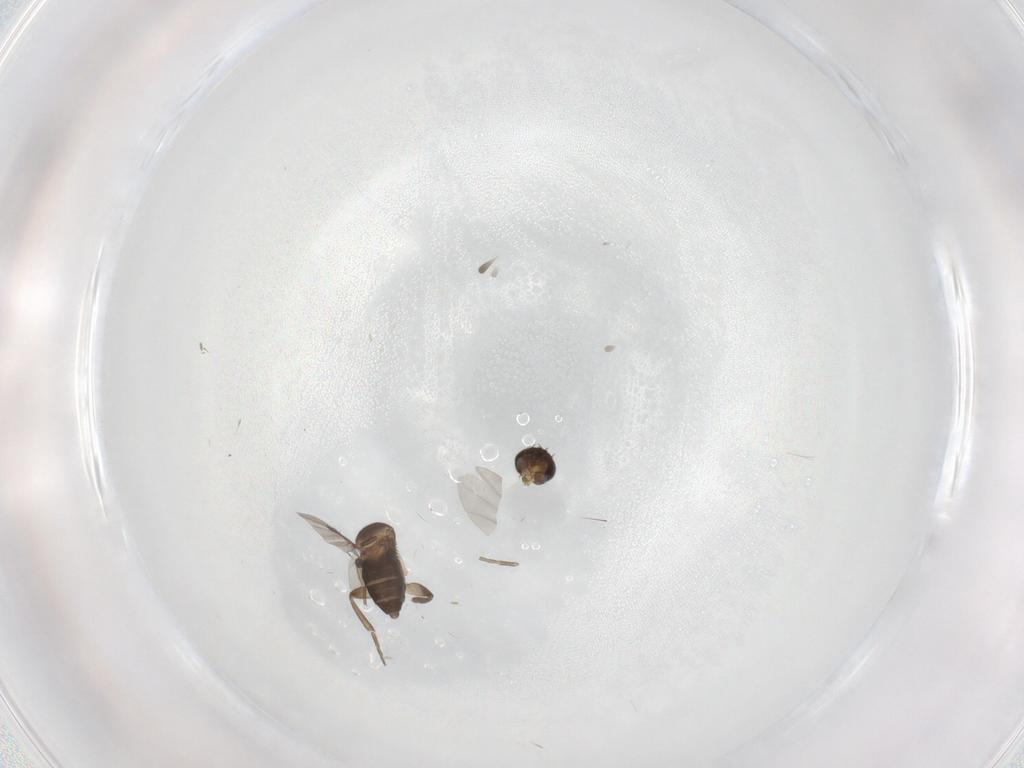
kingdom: Animalia
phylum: Arthropoda
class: Insecta
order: Diptera
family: Phoridae
